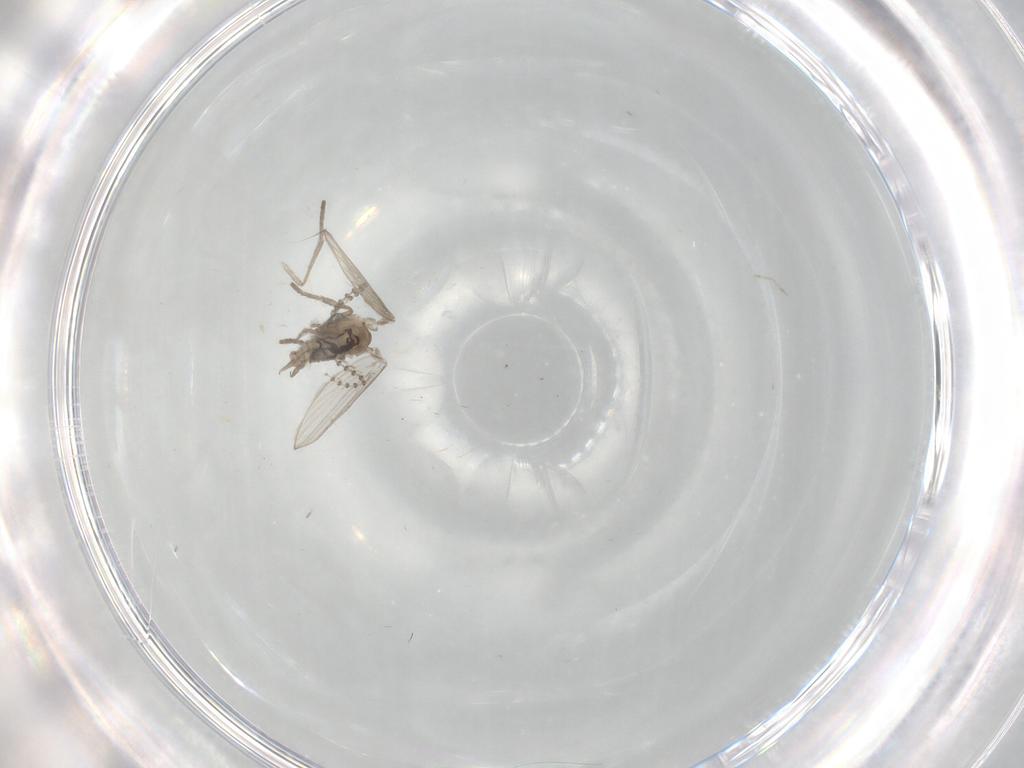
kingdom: Animalia
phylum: Arthropoda
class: Insecta
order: Diptera
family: Psychodidae
